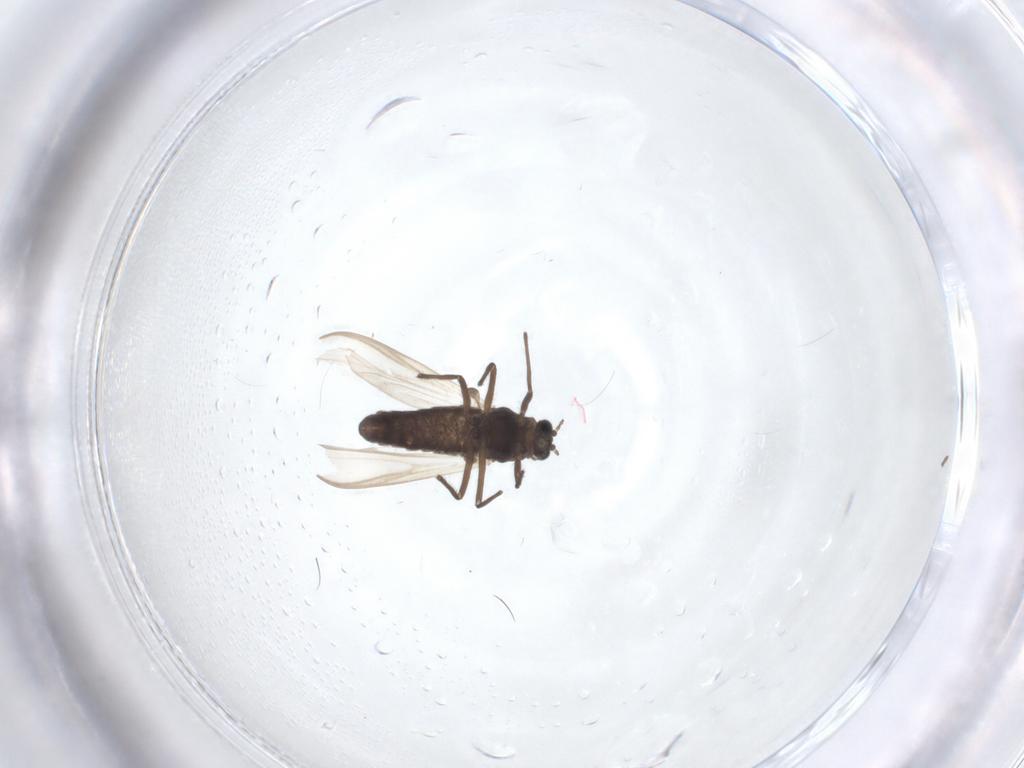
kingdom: Animalia
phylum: Arthropoda
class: Insecta
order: Diptera
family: Ceratopogonidae
